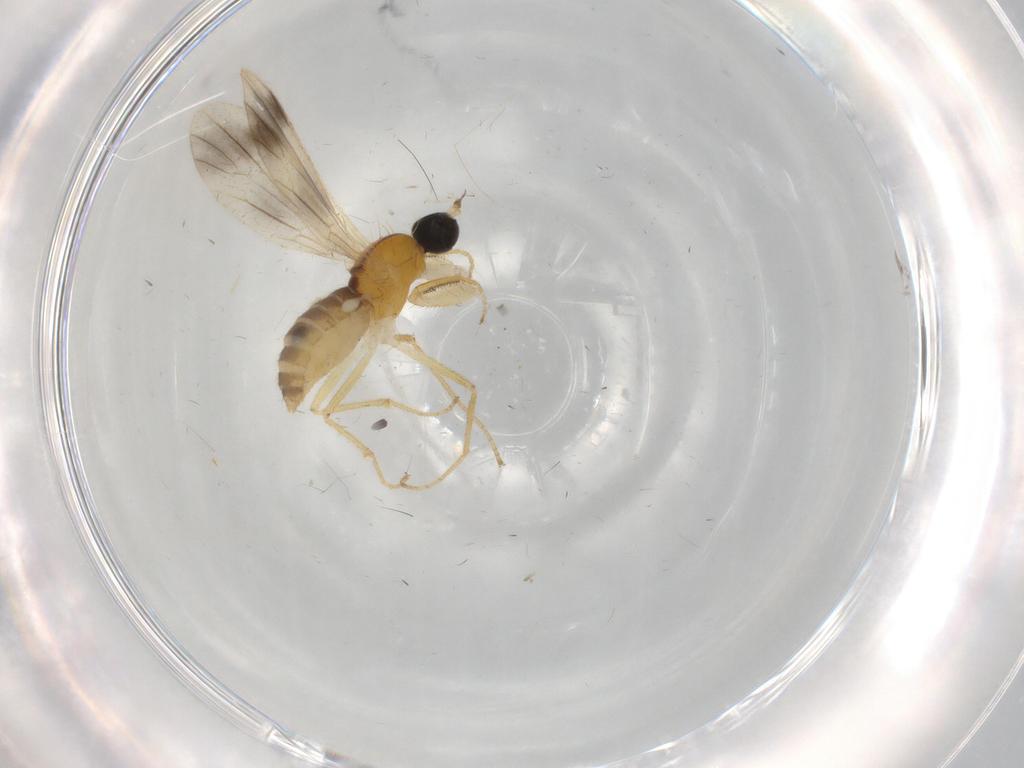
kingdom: Animalia
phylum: Arthropoda
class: Insecta
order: Diptera
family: Empididae
